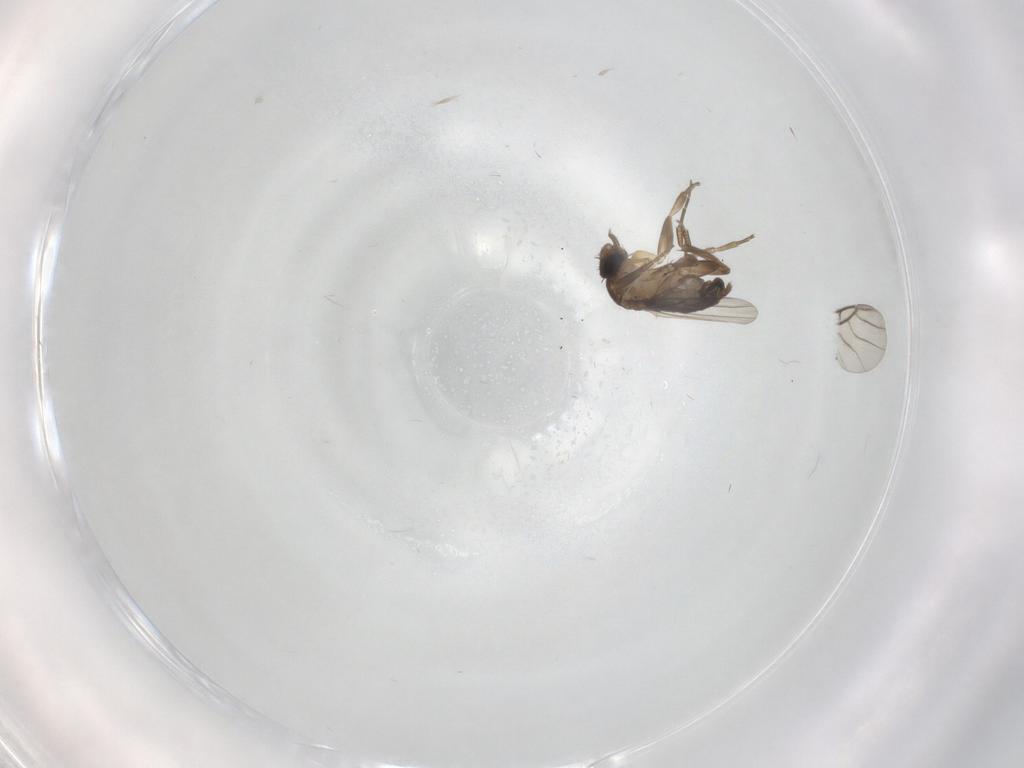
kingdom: Animalia
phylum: Arthropoda
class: Insecta
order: Diptera
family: Phoridae
